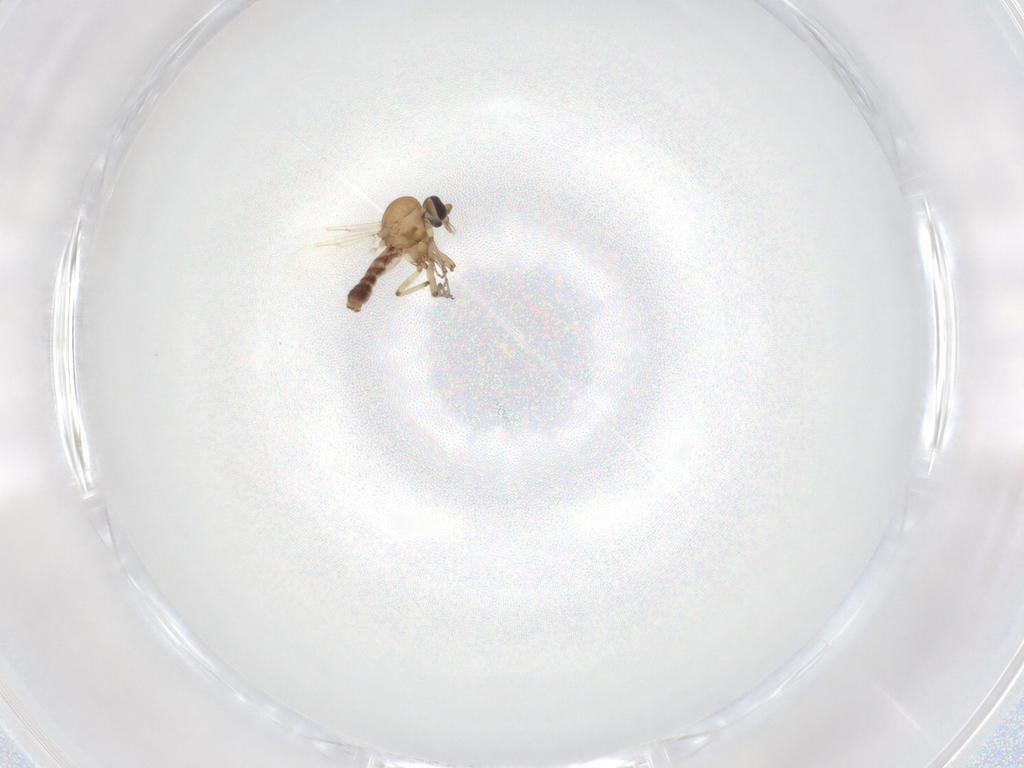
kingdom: Animalia
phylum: Arthropoda
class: Insecta
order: Diptera
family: Ceratopogonidae
